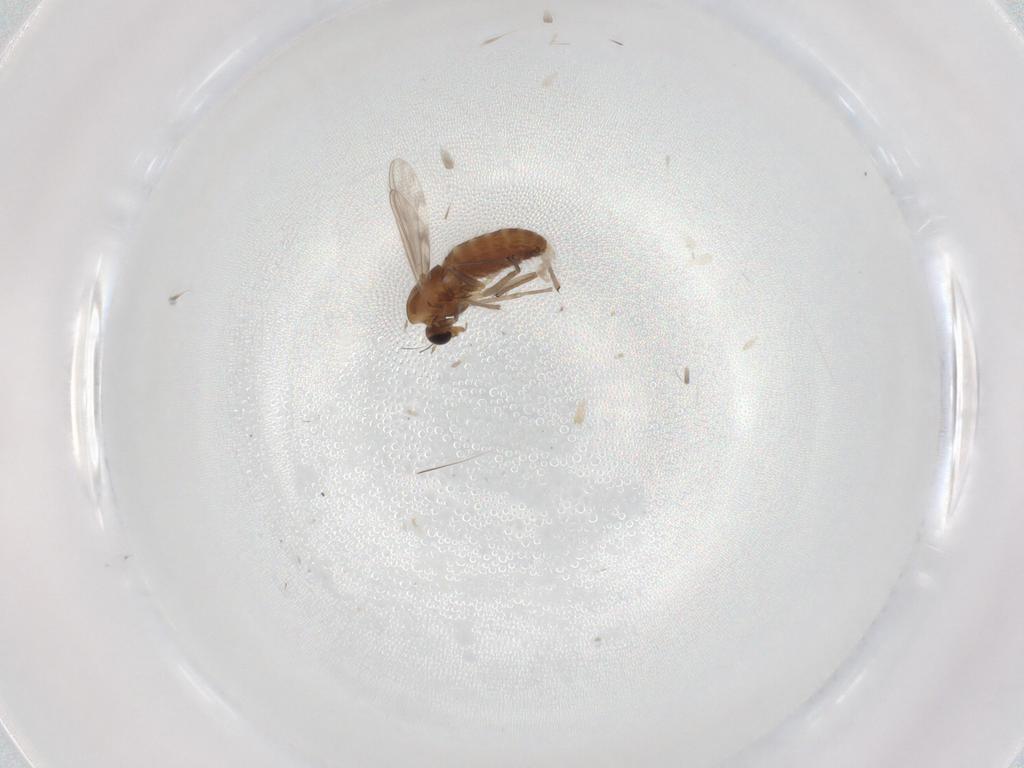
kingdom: Animalia
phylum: Arthropoda
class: Insecta
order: Diptera
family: Chironomidae
